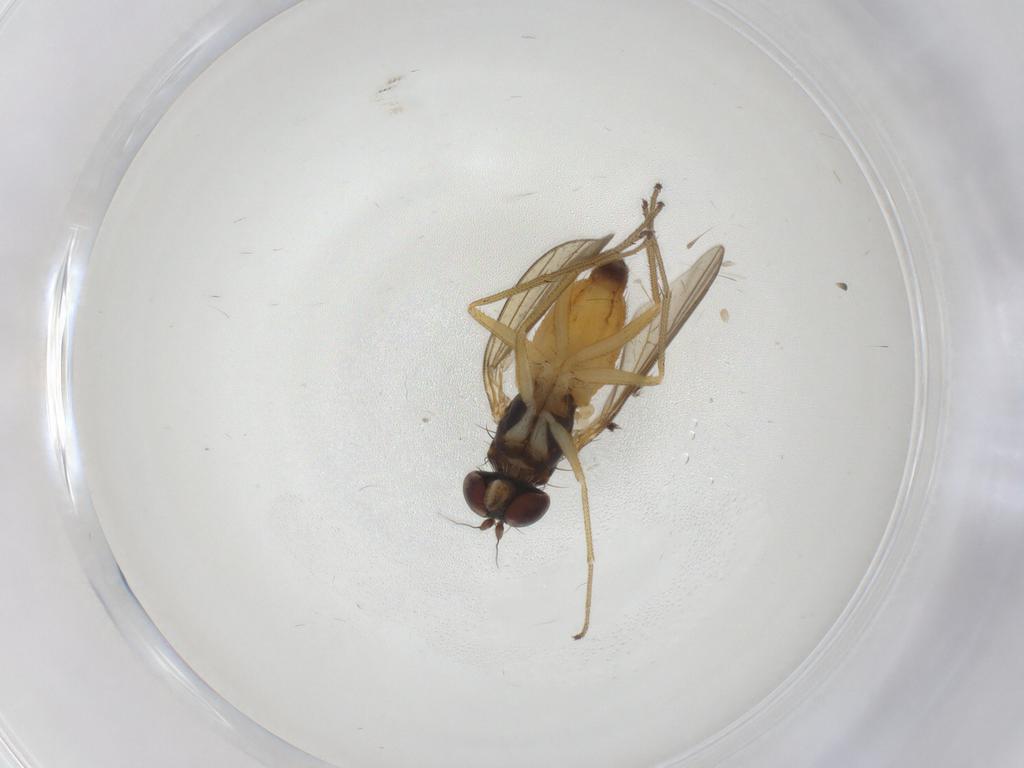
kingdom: Animalia
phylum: Arthropoda
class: Insecta
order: Diptera
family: Dolichopodidae
